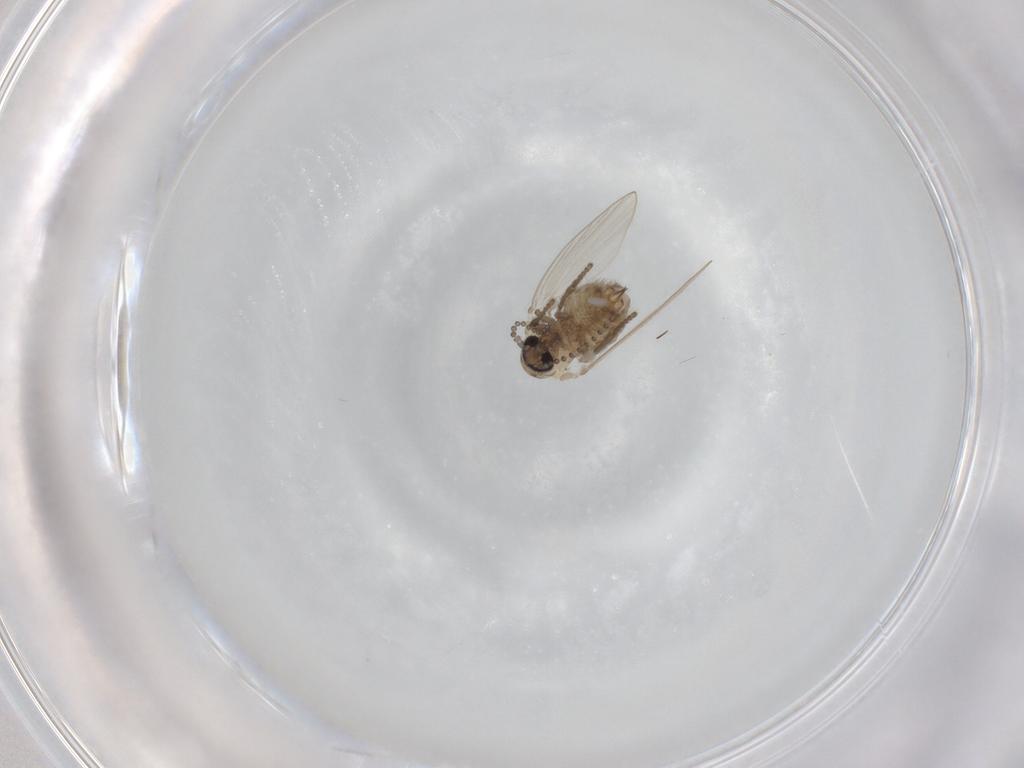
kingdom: Animalia
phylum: Arthropoda
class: Insecta
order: Diptera
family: Psychodidae
